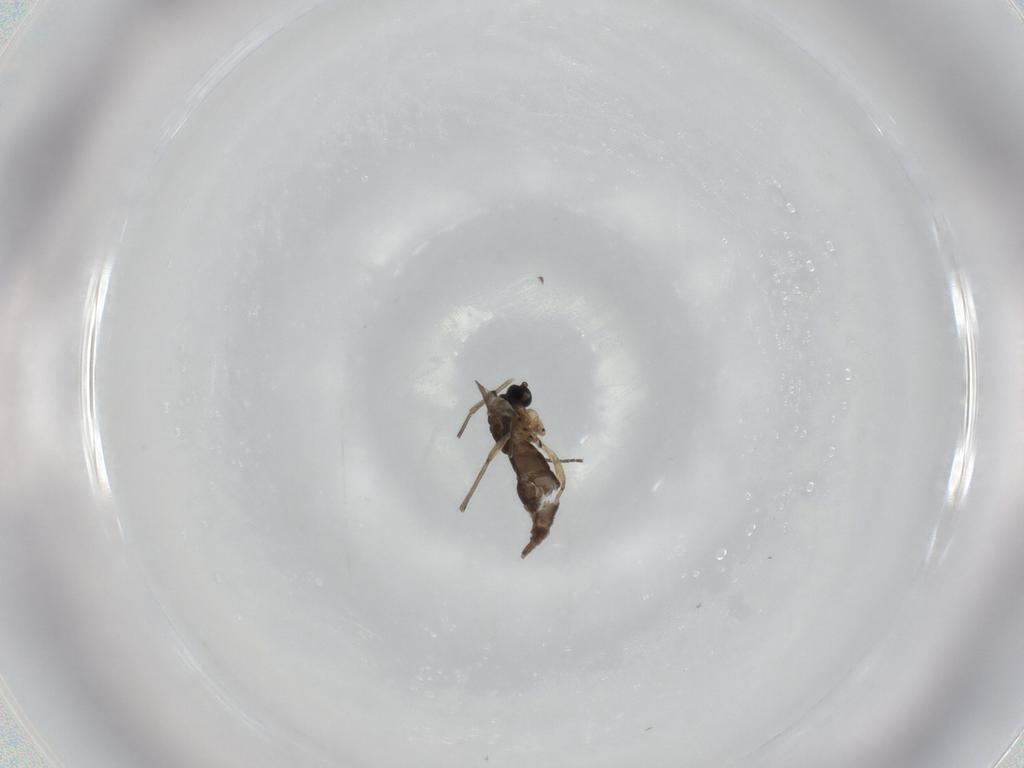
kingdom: Animalia
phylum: Arthropoda
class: Insecta
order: Diptera
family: Sciaridae
